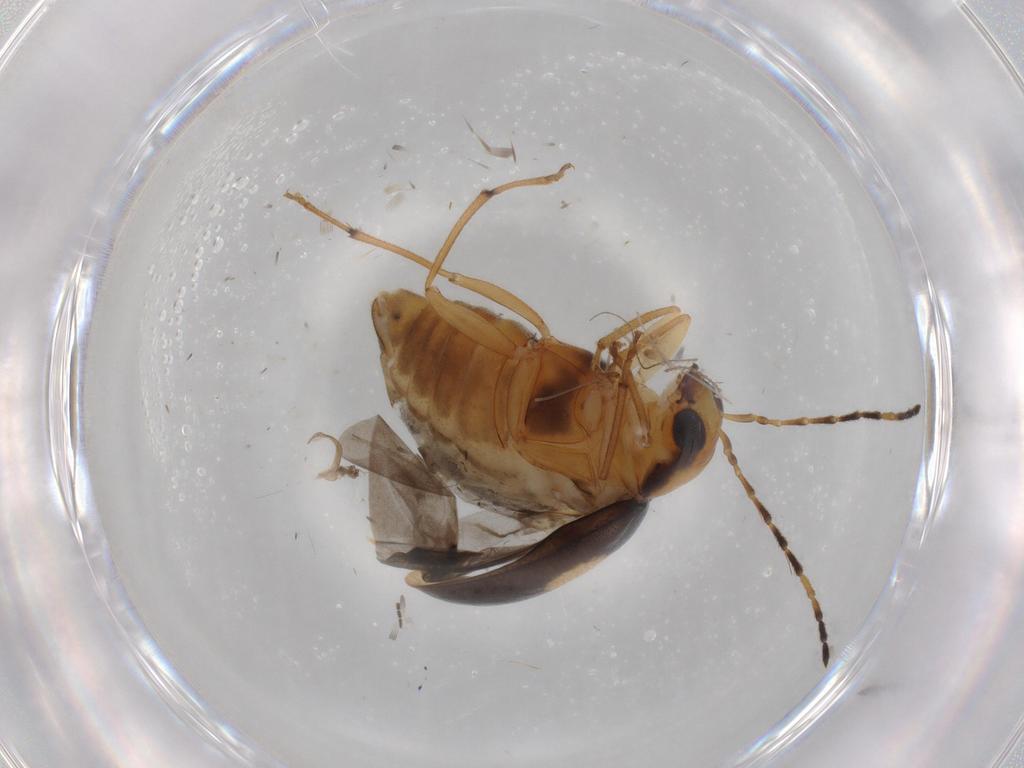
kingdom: Animalia
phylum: Arthropoda
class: Insecta
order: Coleoptera
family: Chrysomelidae
